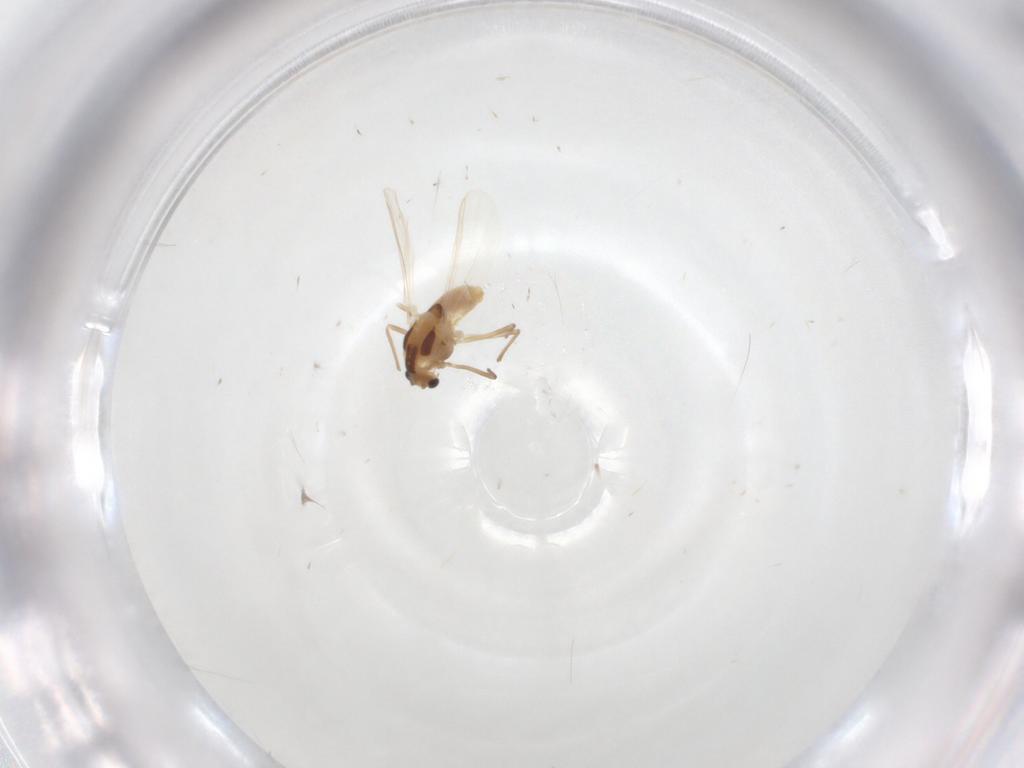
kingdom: Animalia
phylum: Arthropoda
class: Insecta
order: Diptera
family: Chironomidae
